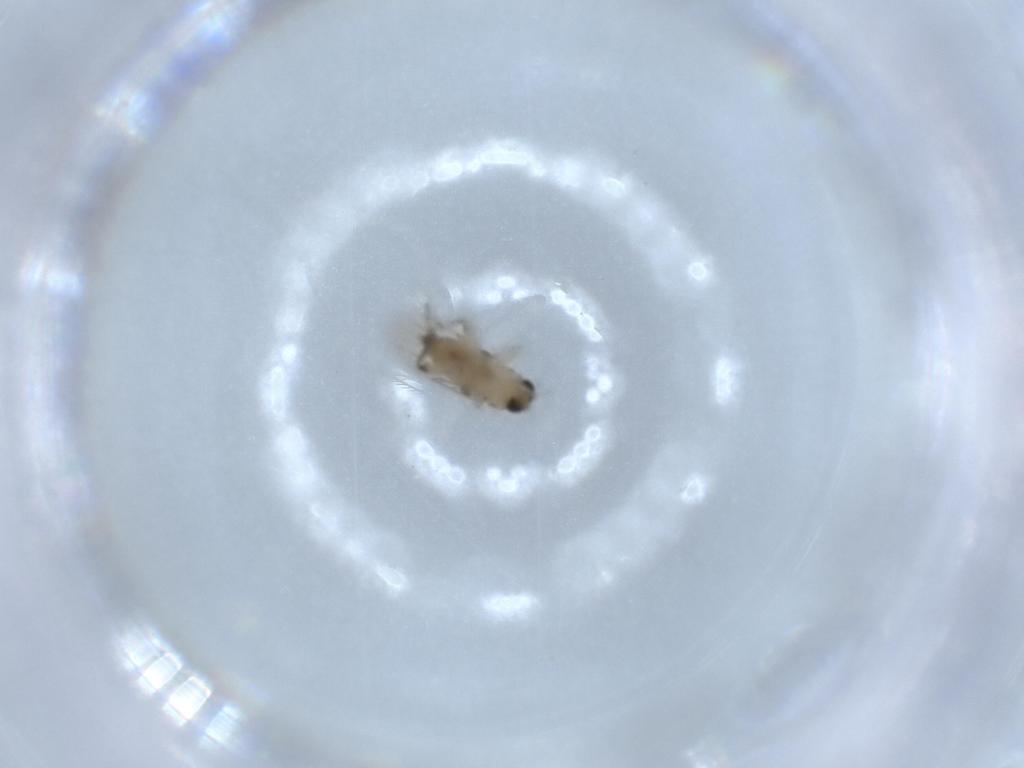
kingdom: Animalia
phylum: Arthropoda
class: Insecta
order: Diptera
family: Phoridae
